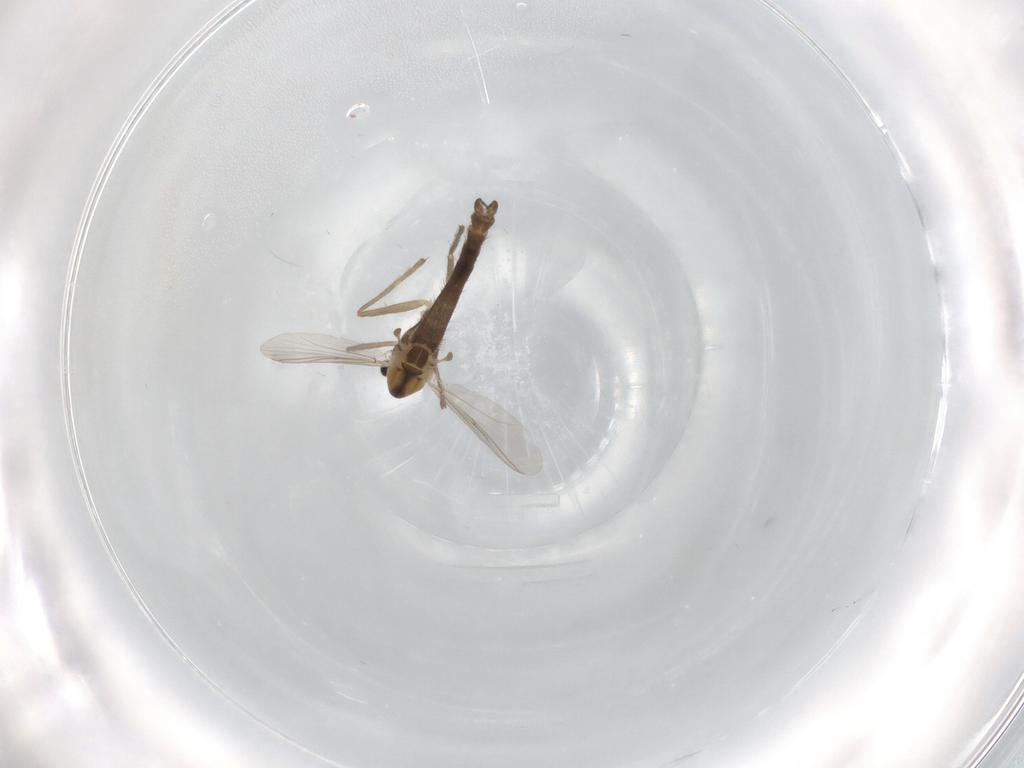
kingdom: Animalia
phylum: Arthropoda
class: Insecta
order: Diptera
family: Chironomidae
